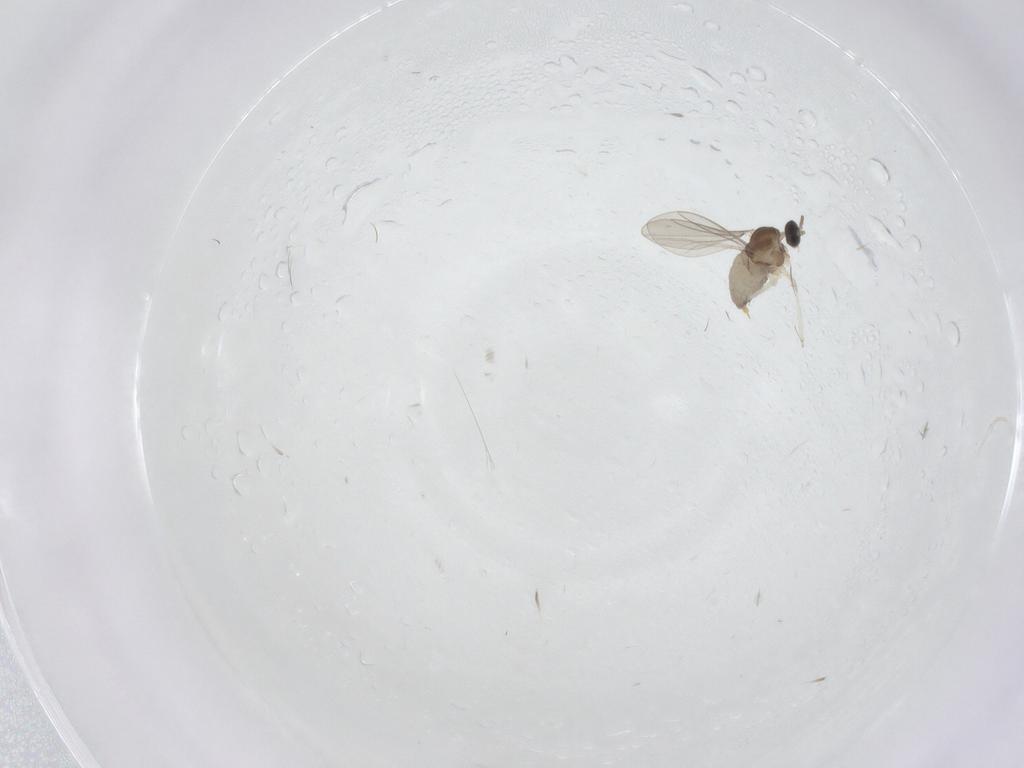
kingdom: Animalia
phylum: Arthropoda
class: Insecta
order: Diptera
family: Cecidomyiidae
